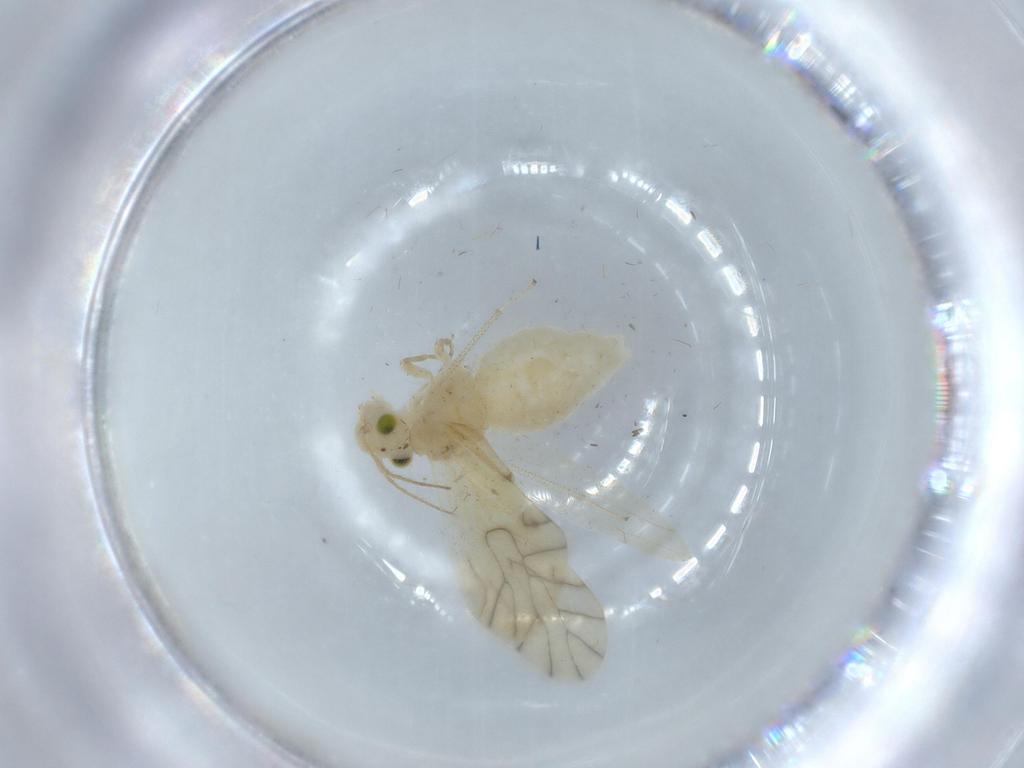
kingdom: Animalia
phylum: Arthropoda
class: Insecta
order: Psocodea
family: Caeciliusidae
